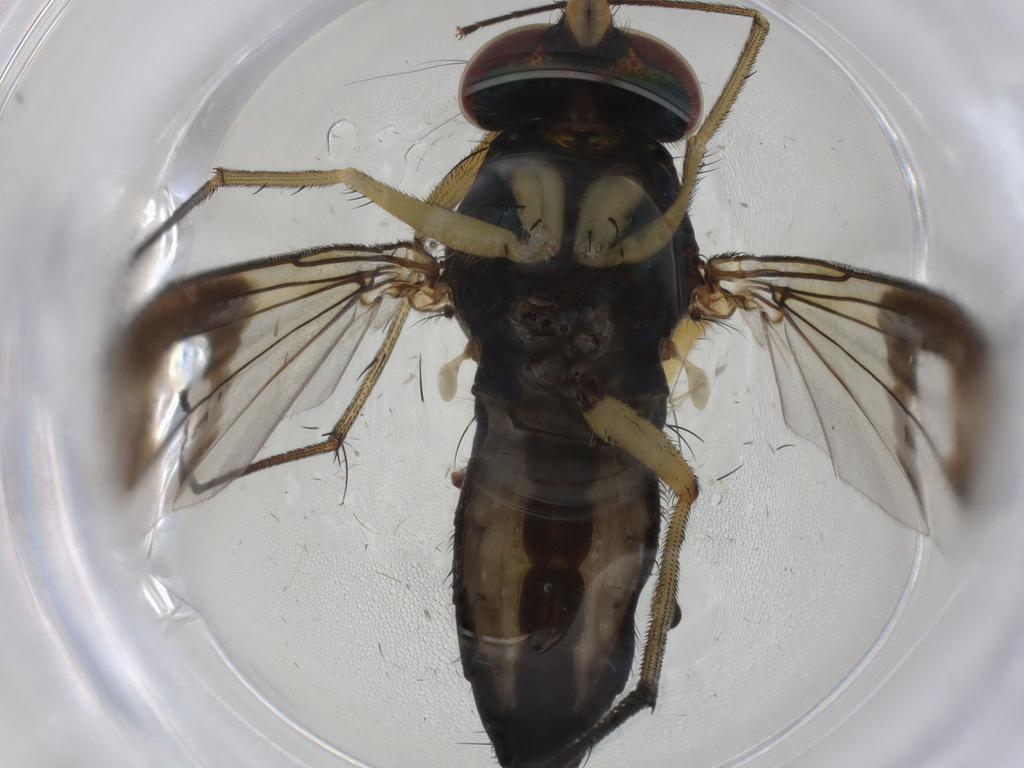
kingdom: Animalia
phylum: Arthropoda
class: Insecta
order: Diptera
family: Dolichopodidae
